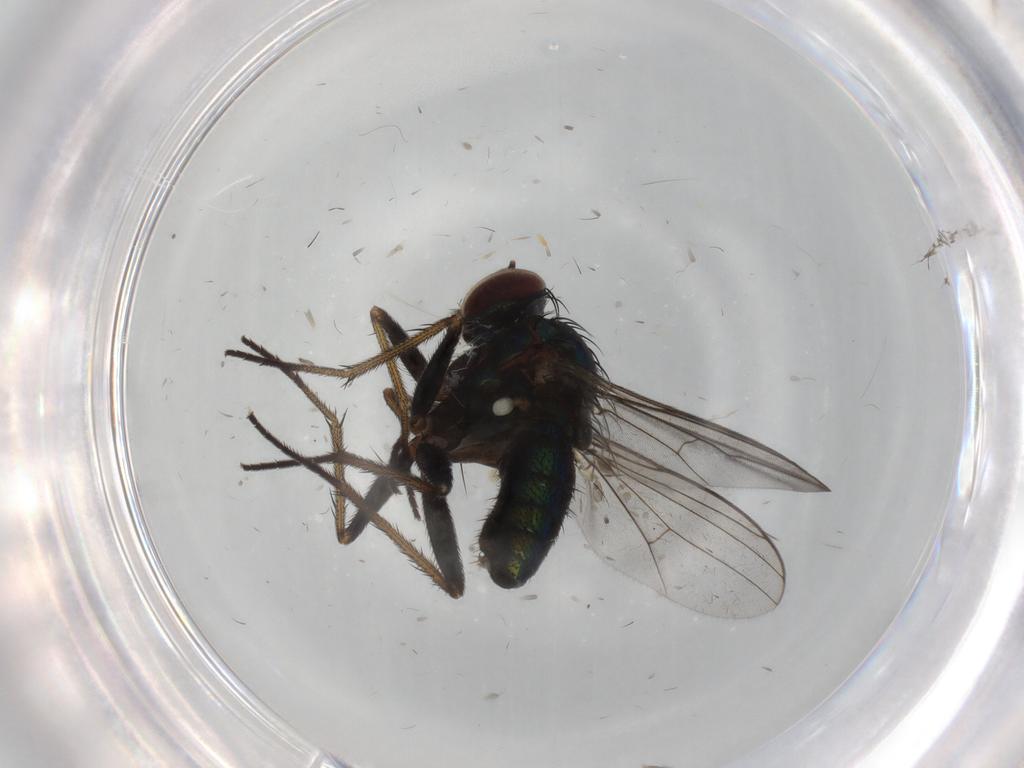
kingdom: Animalia
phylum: Arthropoda
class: Insecta
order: Diptera
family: Dolichopodidae
